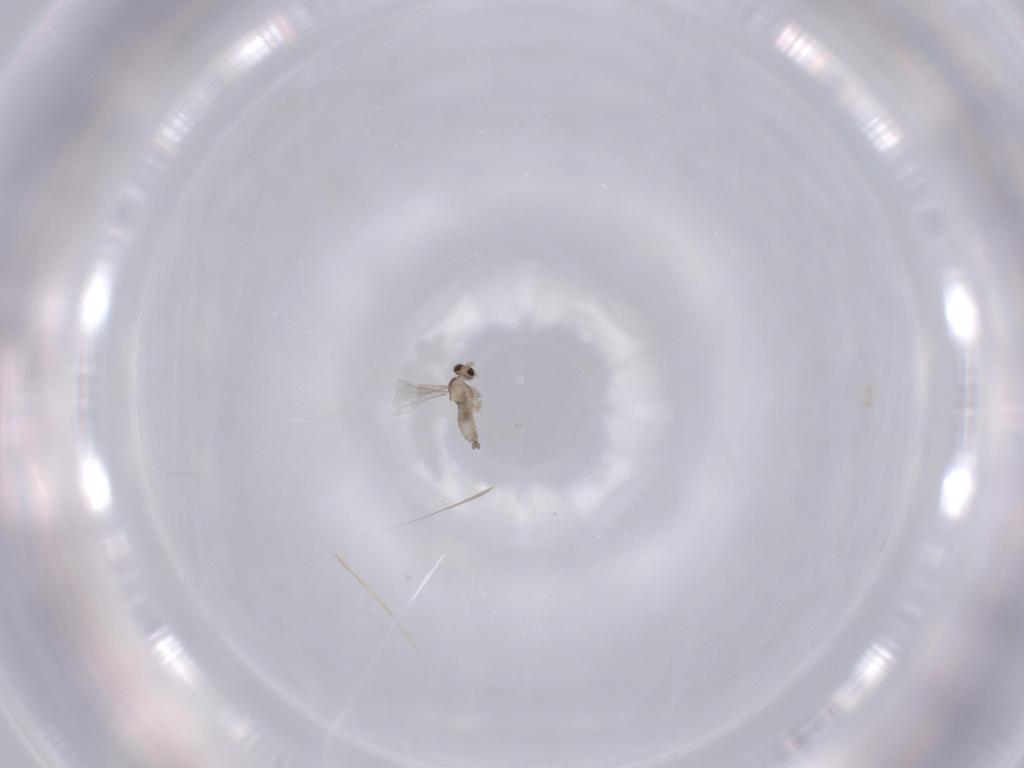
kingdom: Animalia
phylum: Arthropoda
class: Insecta
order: Diptera
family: Cecidomyiidae
